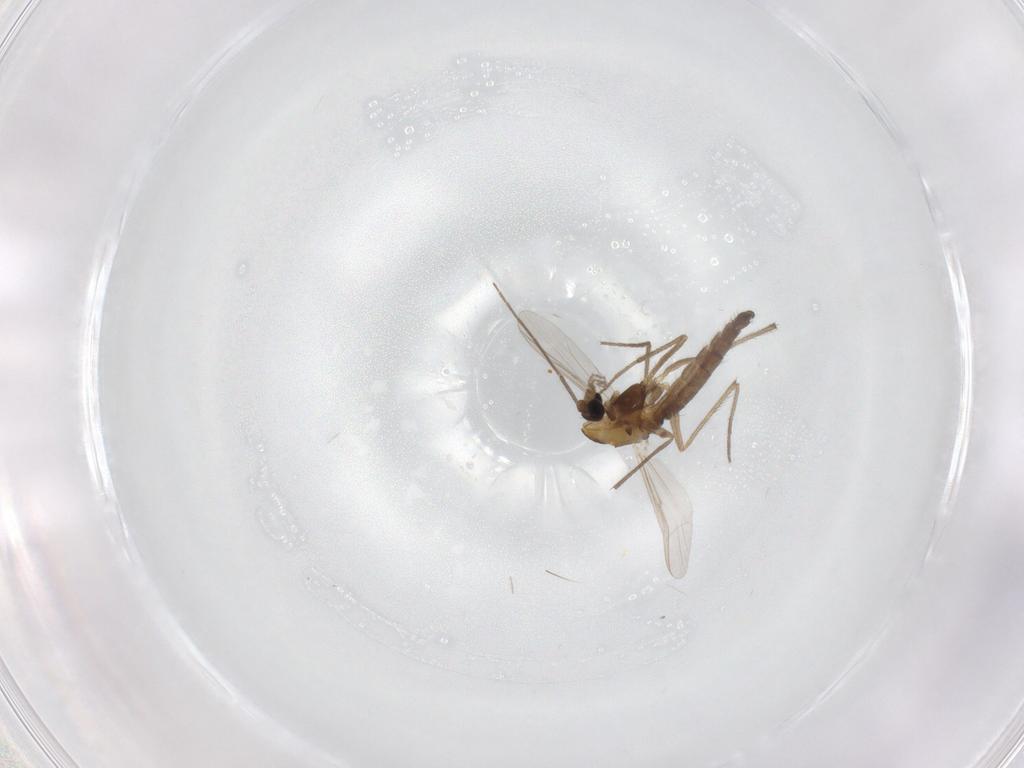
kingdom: Animalia
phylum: Arthropoda
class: Insecta
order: Diptera
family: Chironomidae
